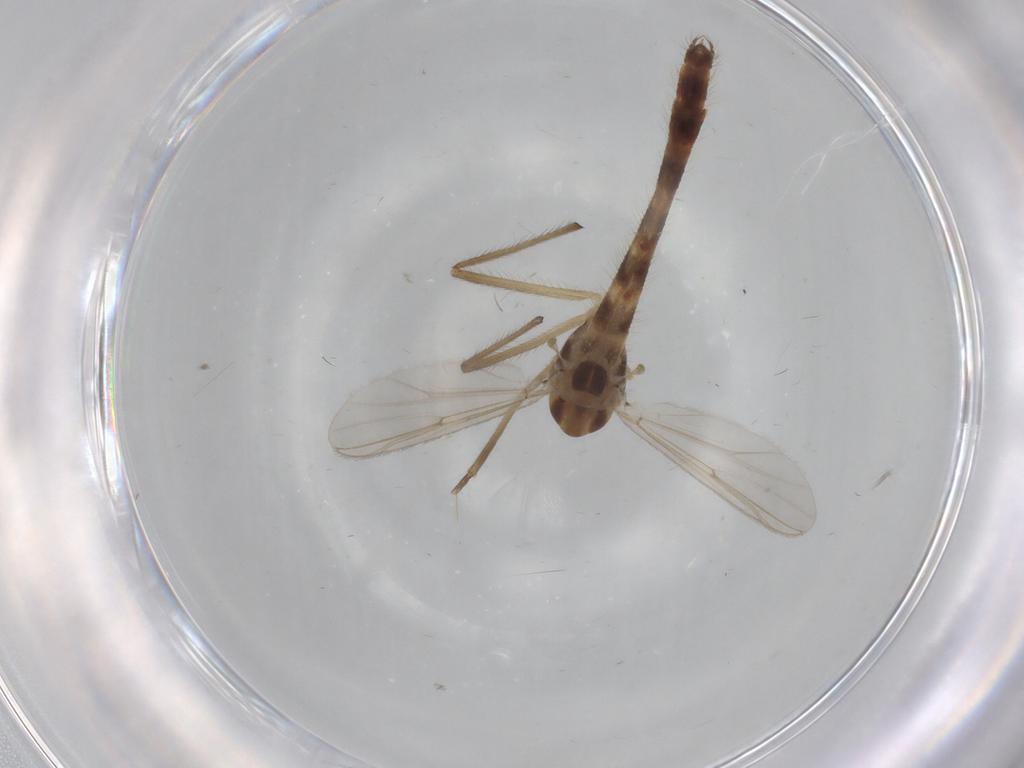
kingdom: Animalia
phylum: Arthropoda
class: Insecta
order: Diptera
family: Chironomidae
